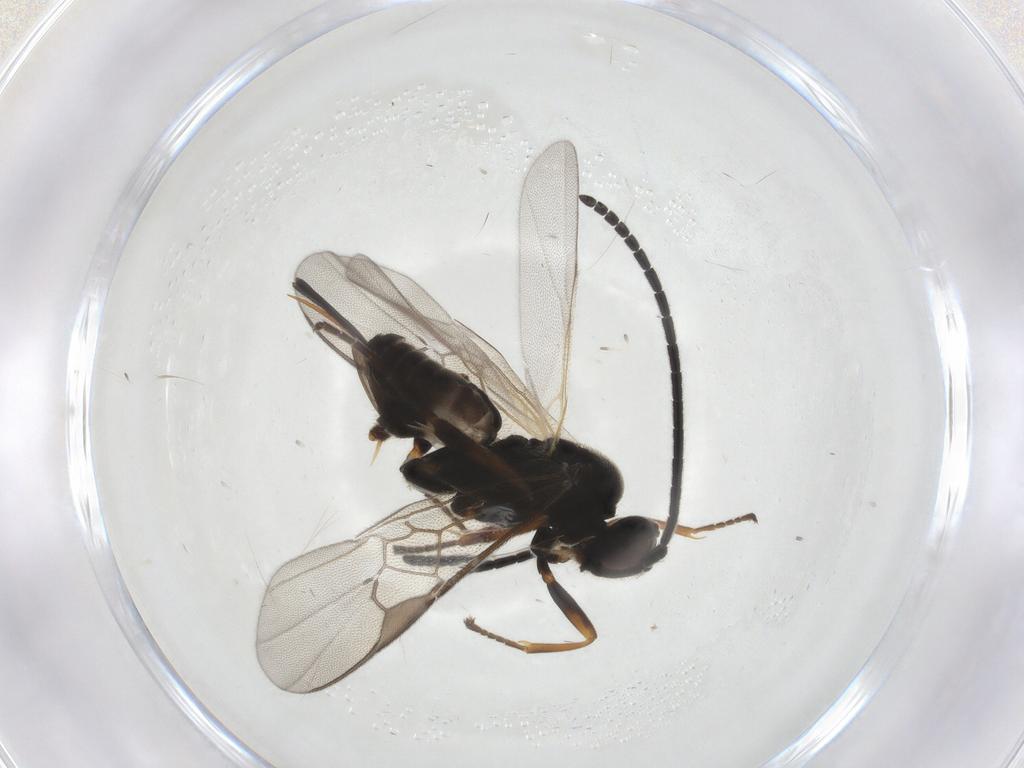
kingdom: Animalia
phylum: Arthropoda
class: Insecta
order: Hymenoptera
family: Braconidae
